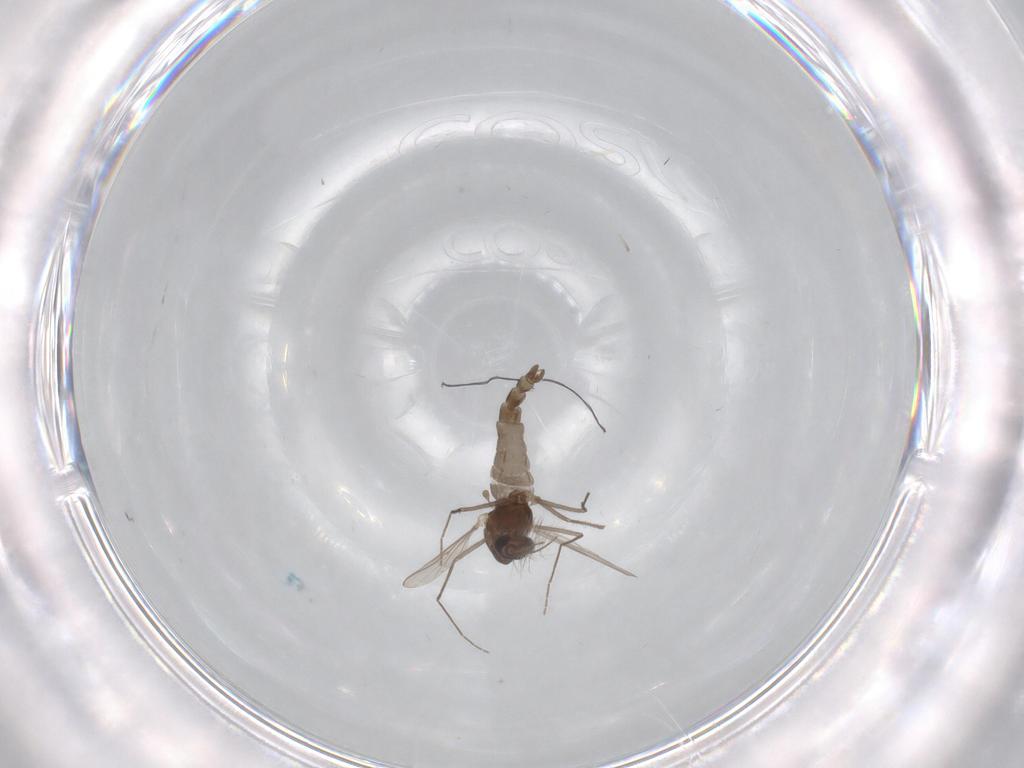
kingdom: Animalia
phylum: Arthropoda
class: Insecta
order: Diptera
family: Chironomidae
